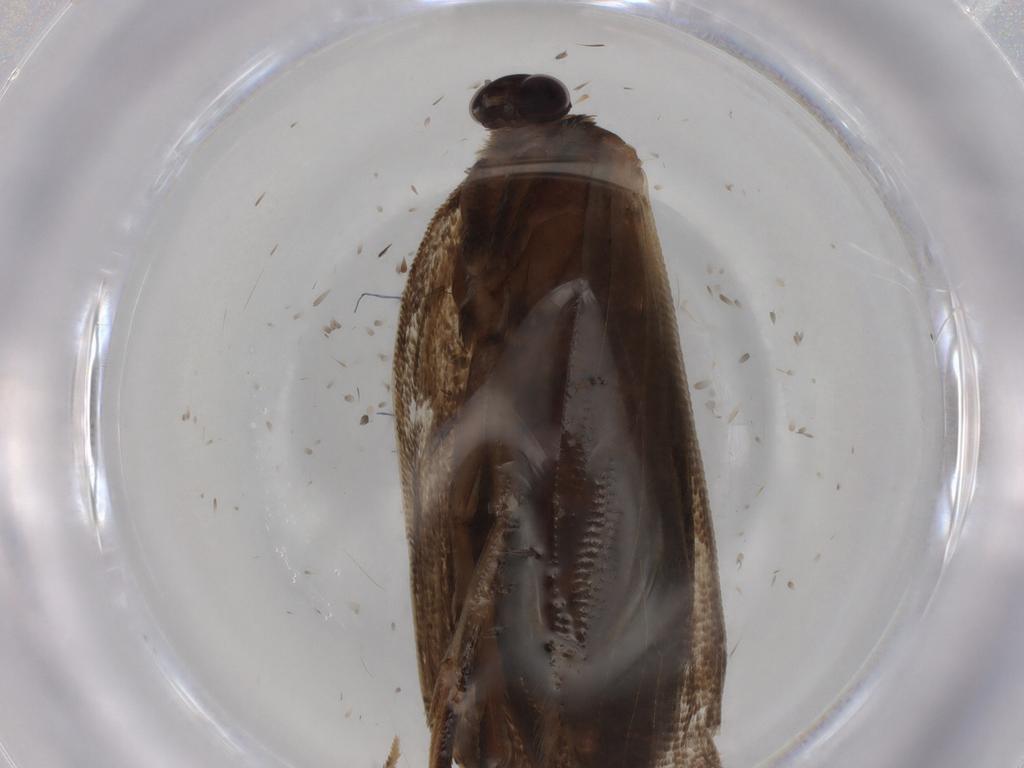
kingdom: Animalia
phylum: Arthropoda
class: Insecta
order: Lepidoptera
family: Tortricidae
